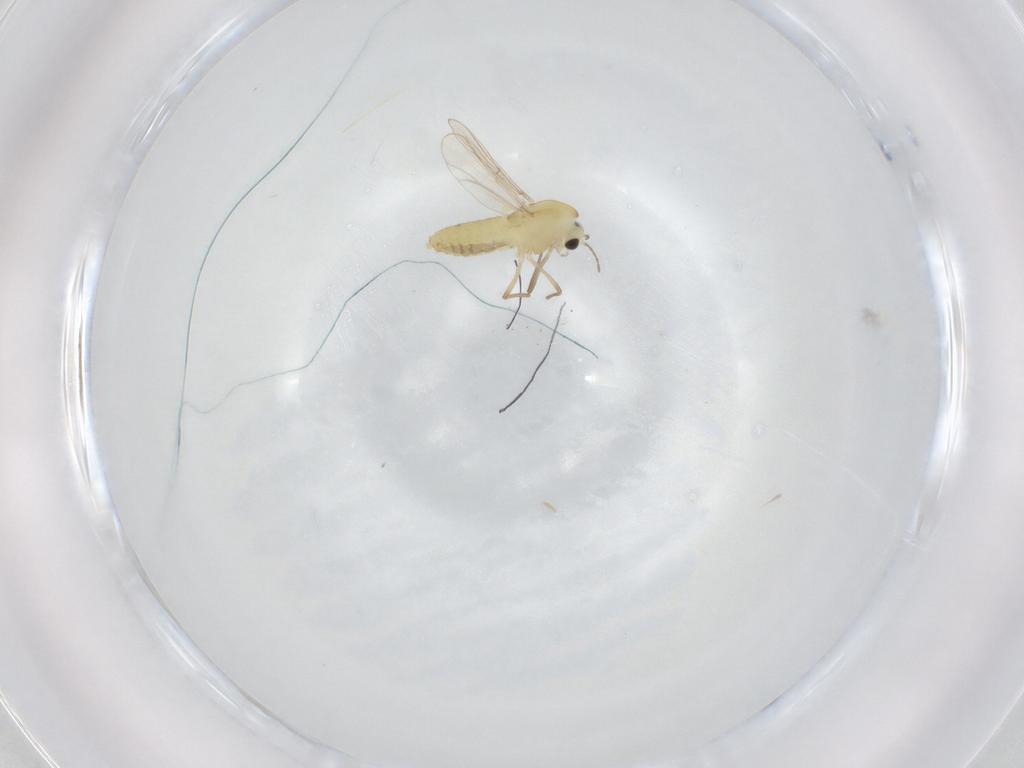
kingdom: Animalia
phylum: Arthropoda
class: Insecta
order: Diptera
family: Chironomidae
